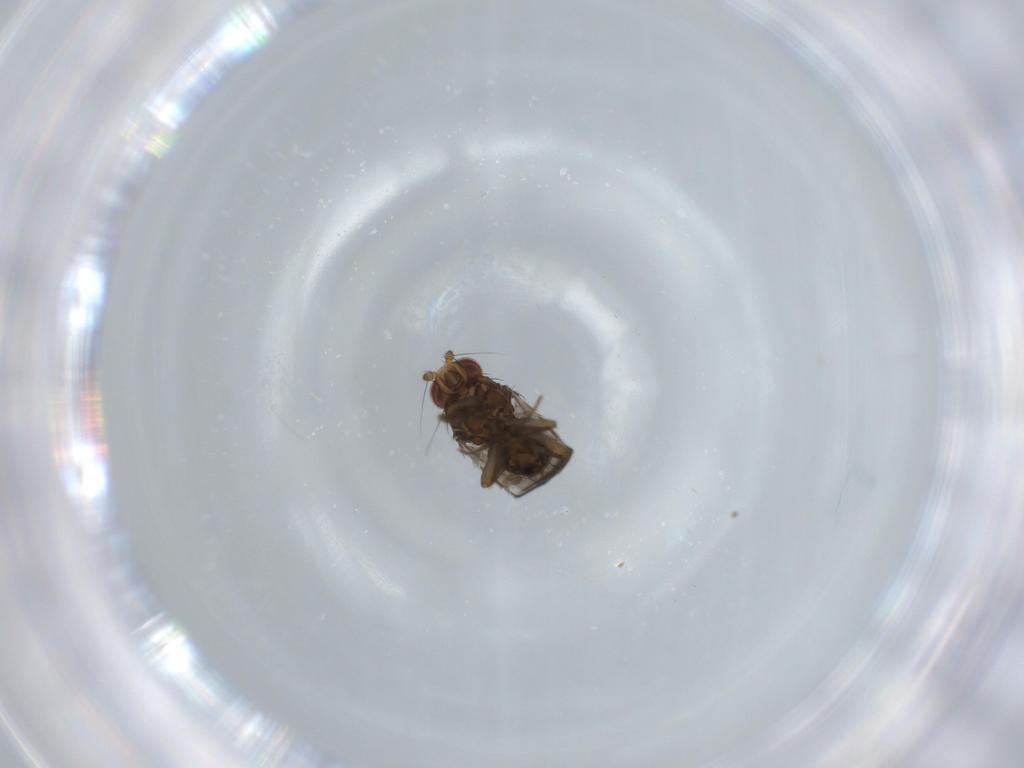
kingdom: Animalia
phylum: Arthropoda
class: Insecta
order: Diptera
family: Sphaeroceridae
